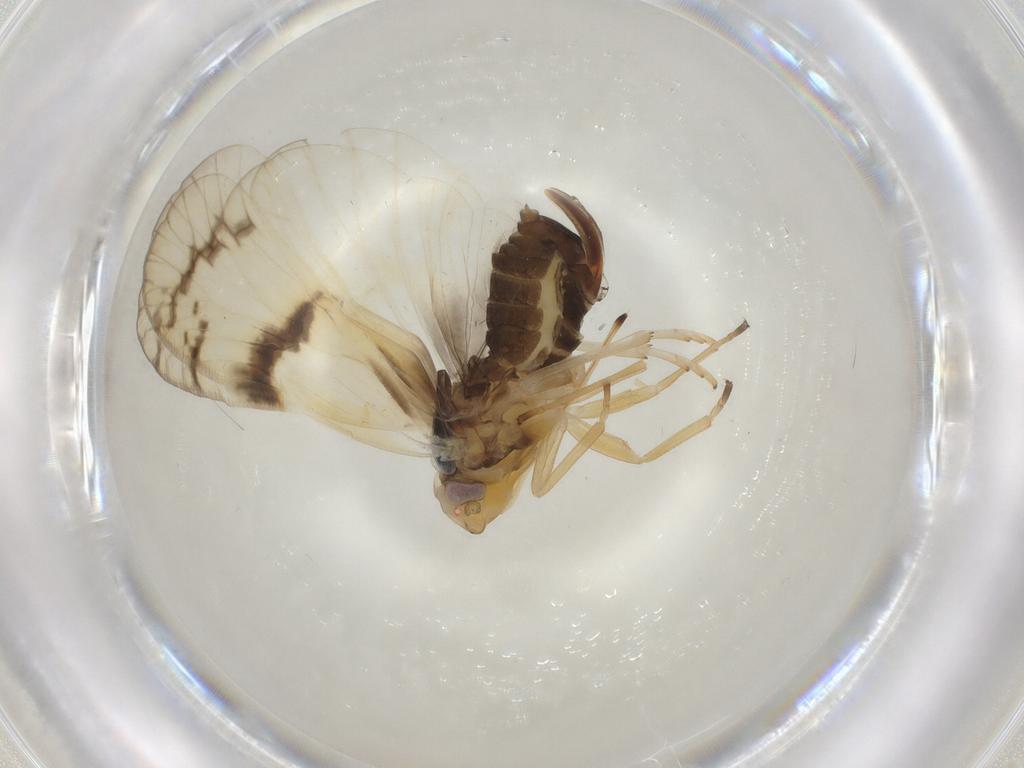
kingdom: Animalia
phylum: Arthropoda
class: Insecta
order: Hemiptera
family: Cixiidae
